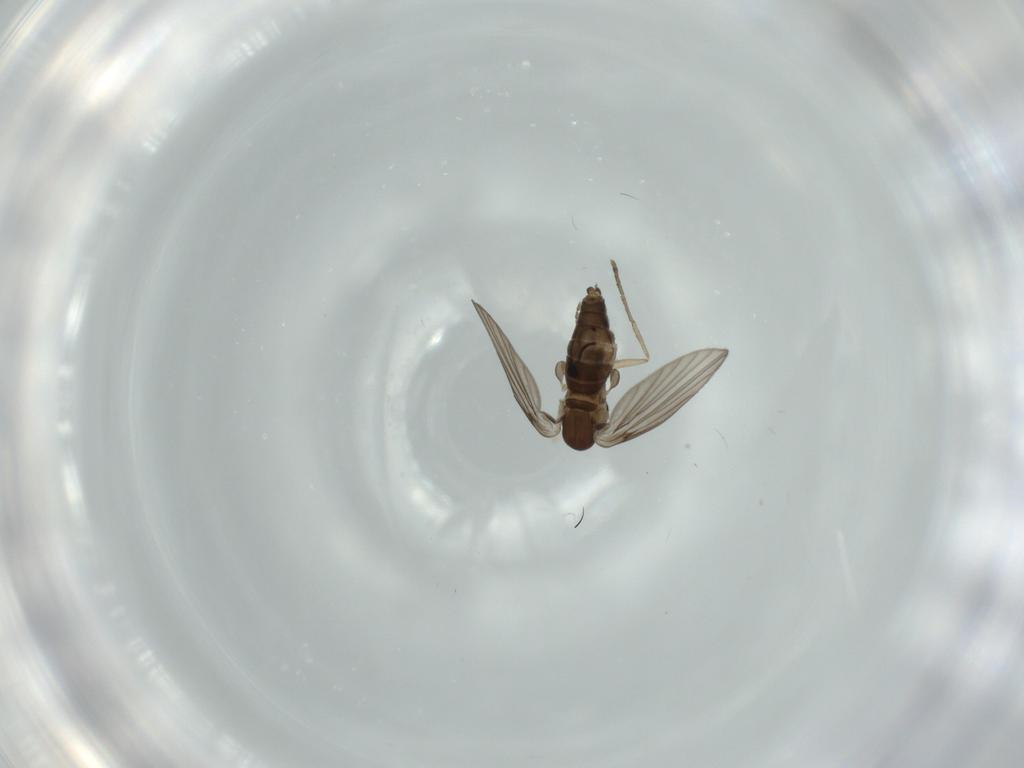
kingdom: Animalia
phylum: Arthropoda
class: Insecta
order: Diptera
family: Psychodidae
